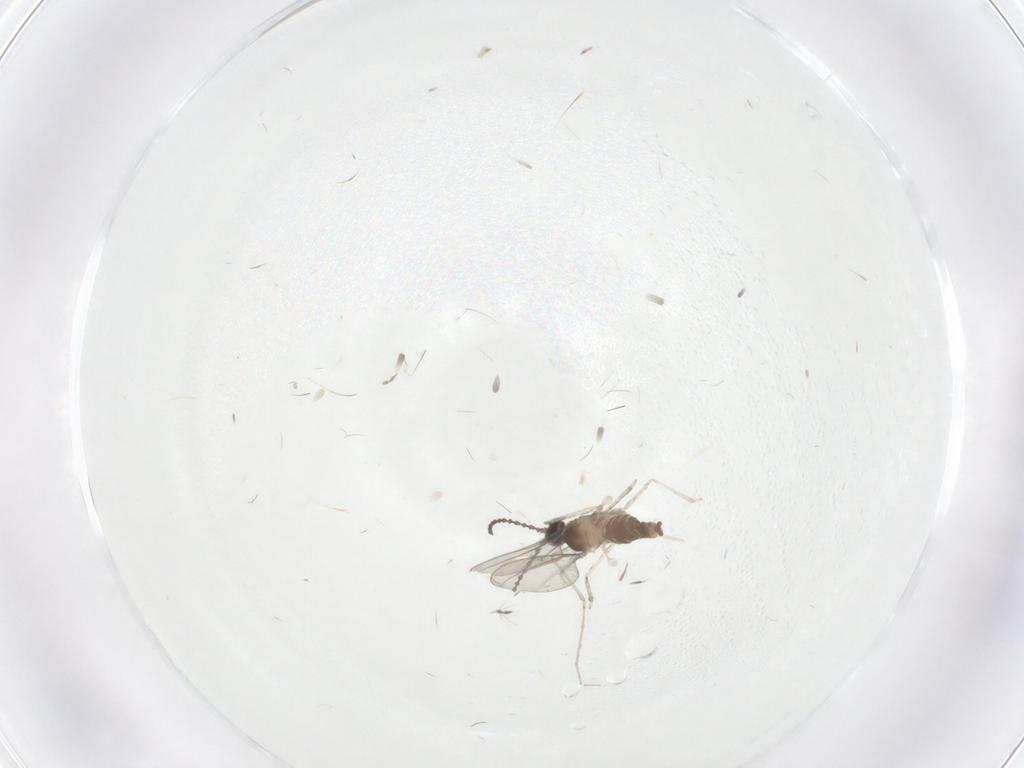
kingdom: Animalia
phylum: Arthropoda
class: Insecta
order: Diptera
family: Cecidomyiidae
